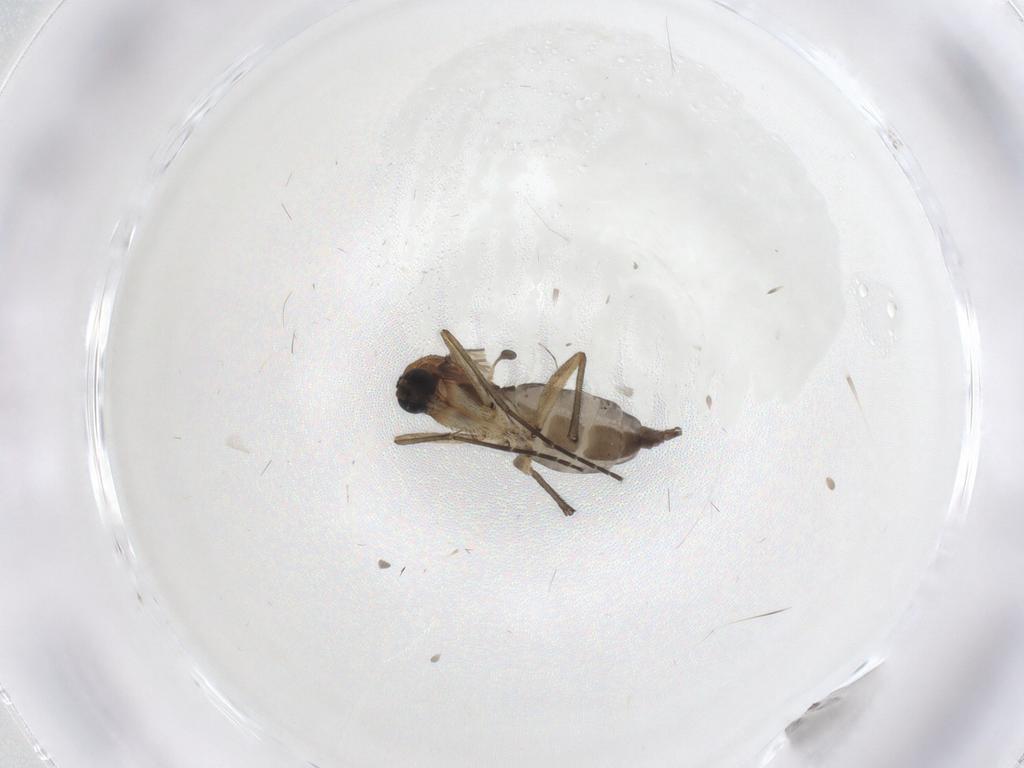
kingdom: Animalia
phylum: Arthropoda
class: Insecta
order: Diptera
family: Sciaridae
